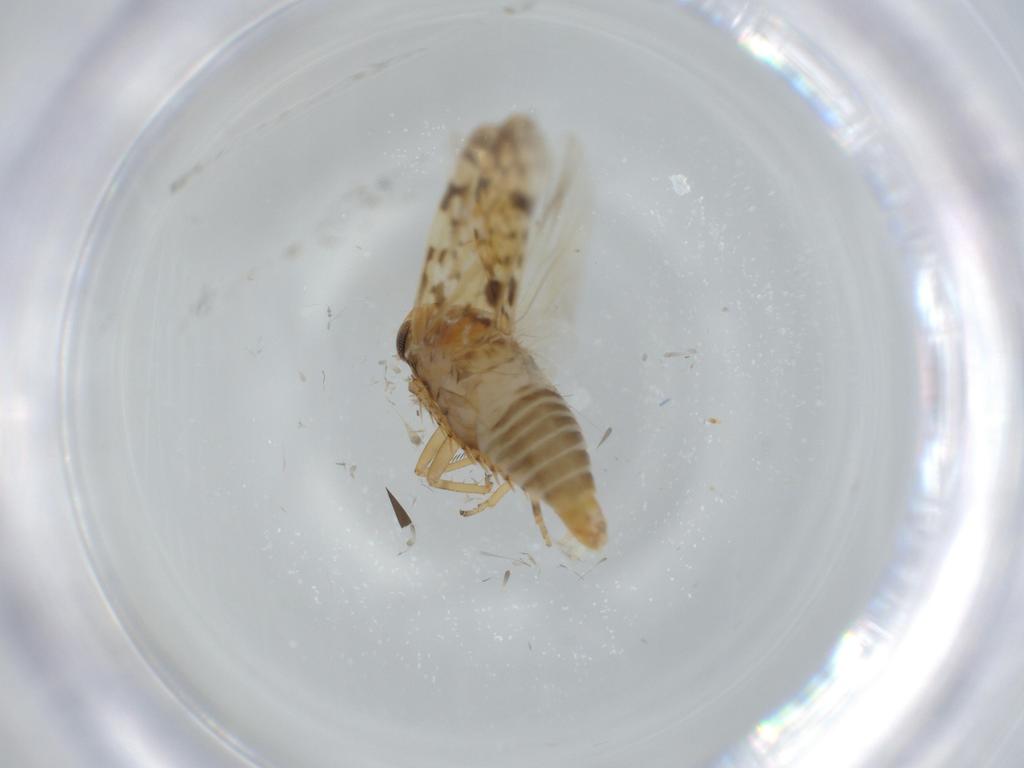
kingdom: Animalia
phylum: Arthropoda
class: Insecta
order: Hemiptera
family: Cicadellidae
